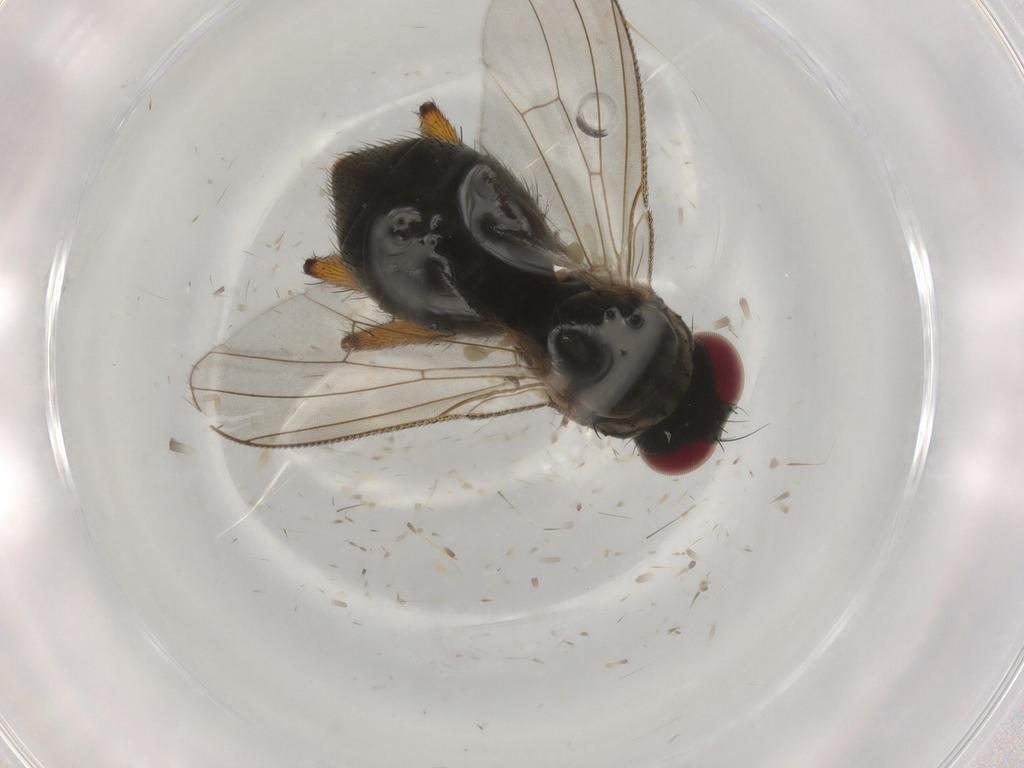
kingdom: Animalia
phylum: Arthropoda
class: Insecta
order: Diptera
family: Muscidae
